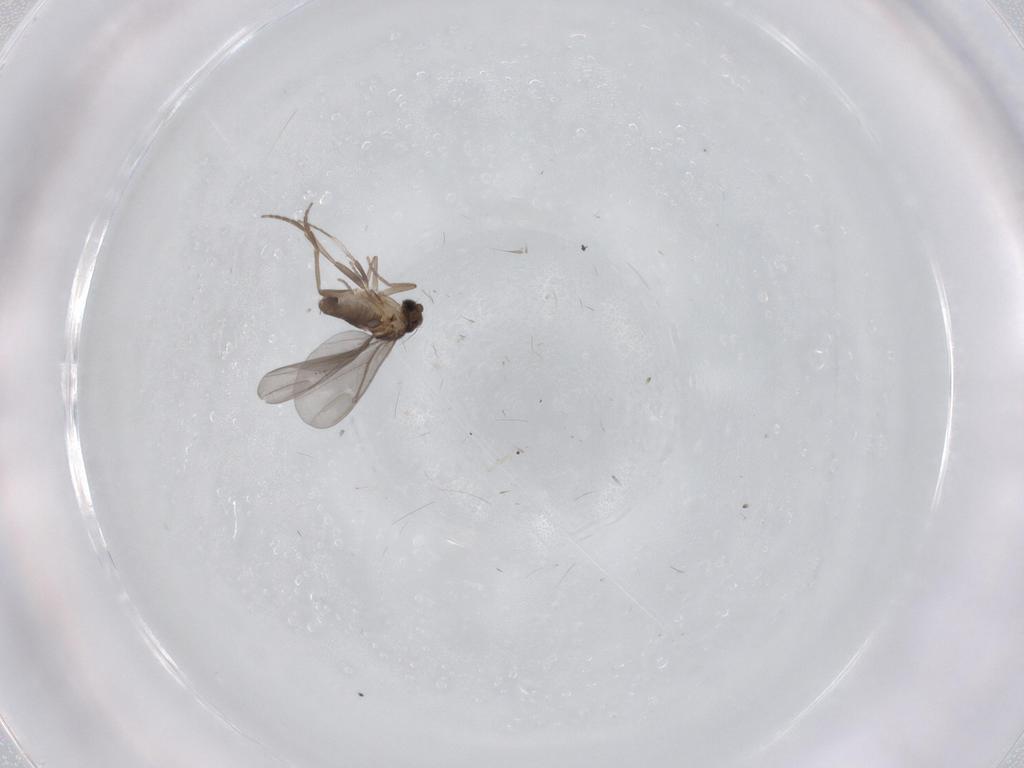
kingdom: Animalia
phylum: Arthropoda
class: Insecta
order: Diptera
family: Phoridae
